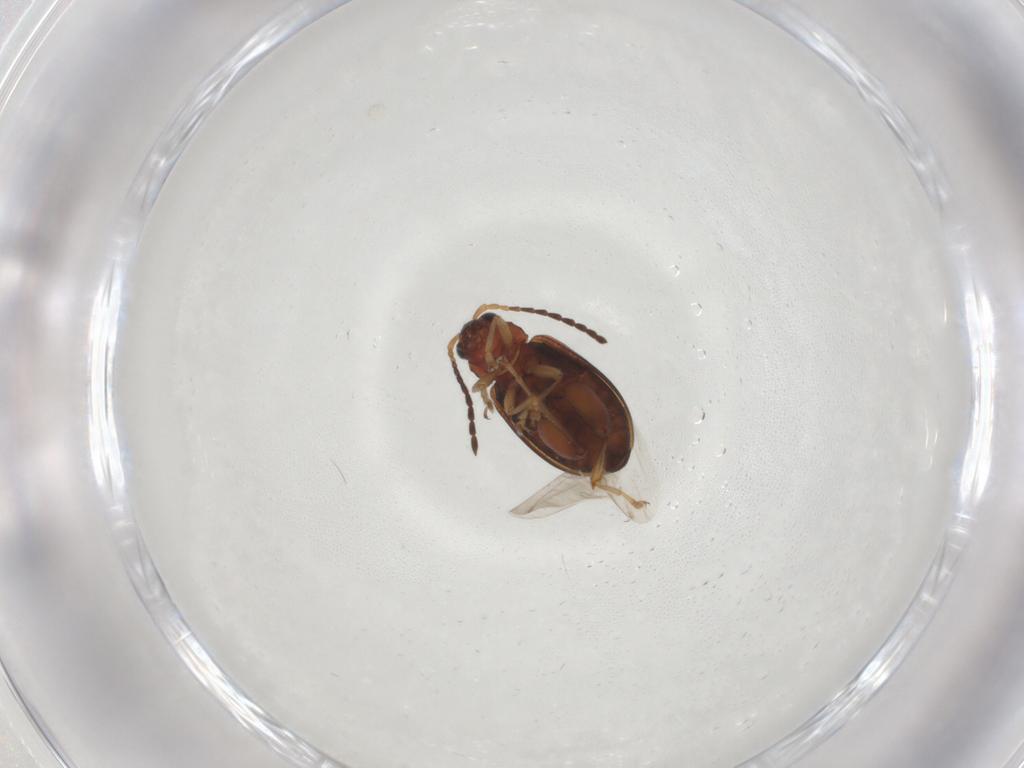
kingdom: Animalia
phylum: Arthropoda
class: Insecta
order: Coleoptera
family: Chrysomelidae
